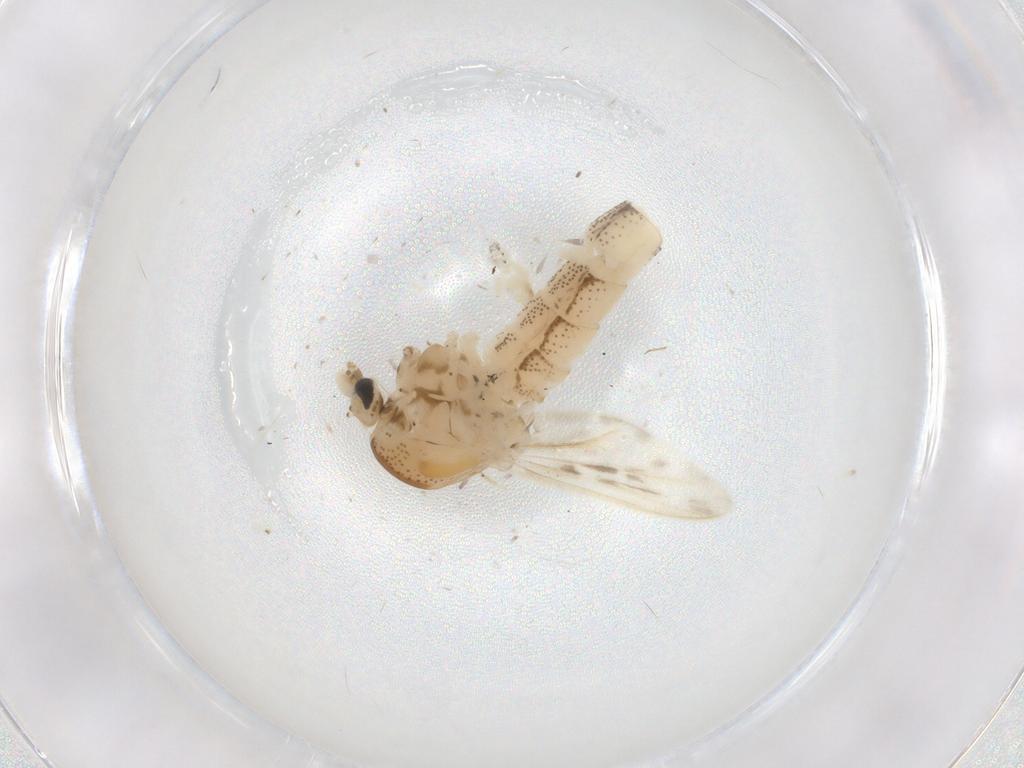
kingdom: Animalia
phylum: Arthropoda
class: Insecta
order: Diptera
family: Chaoboridae
